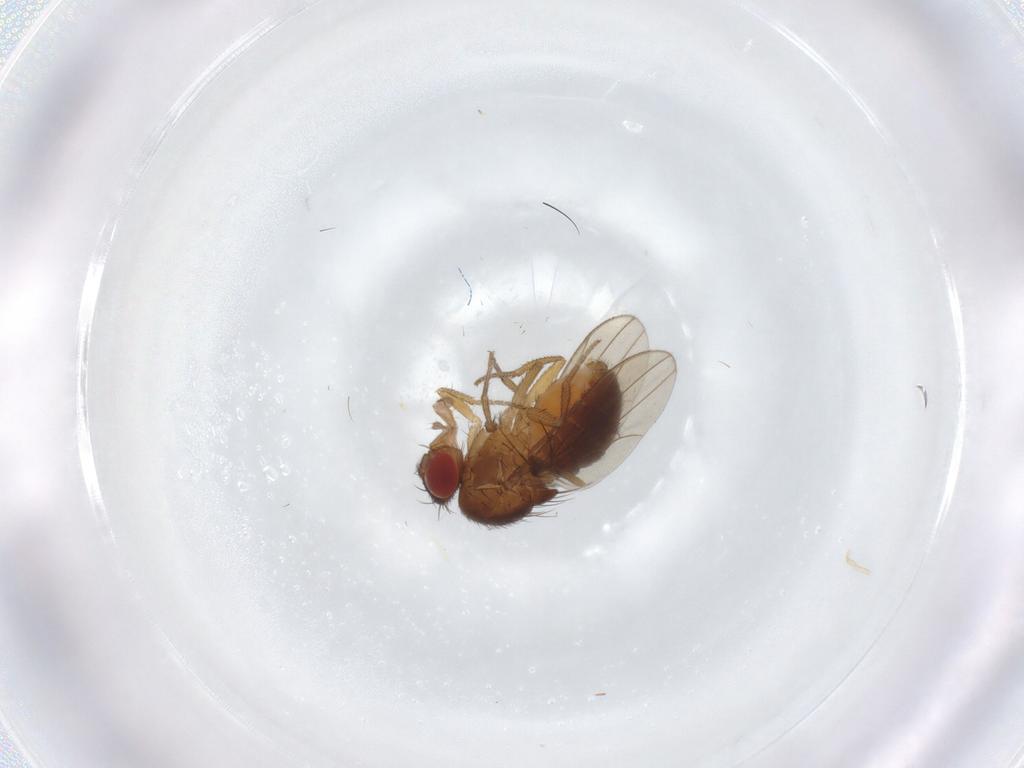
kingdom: Animalia
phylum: Arthropoda
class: Insecta
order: Diptera
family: Drosophilidae
